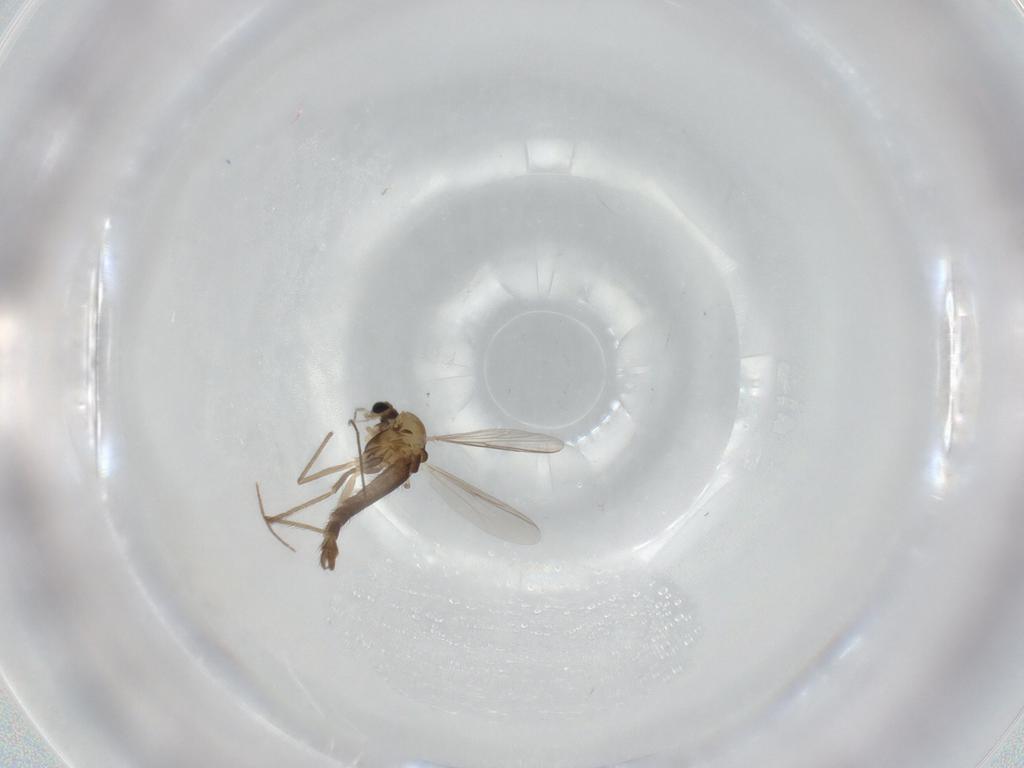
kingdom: Animalia
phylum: Arthropoda
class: Insecta
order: Diptera
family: Chironomidae
